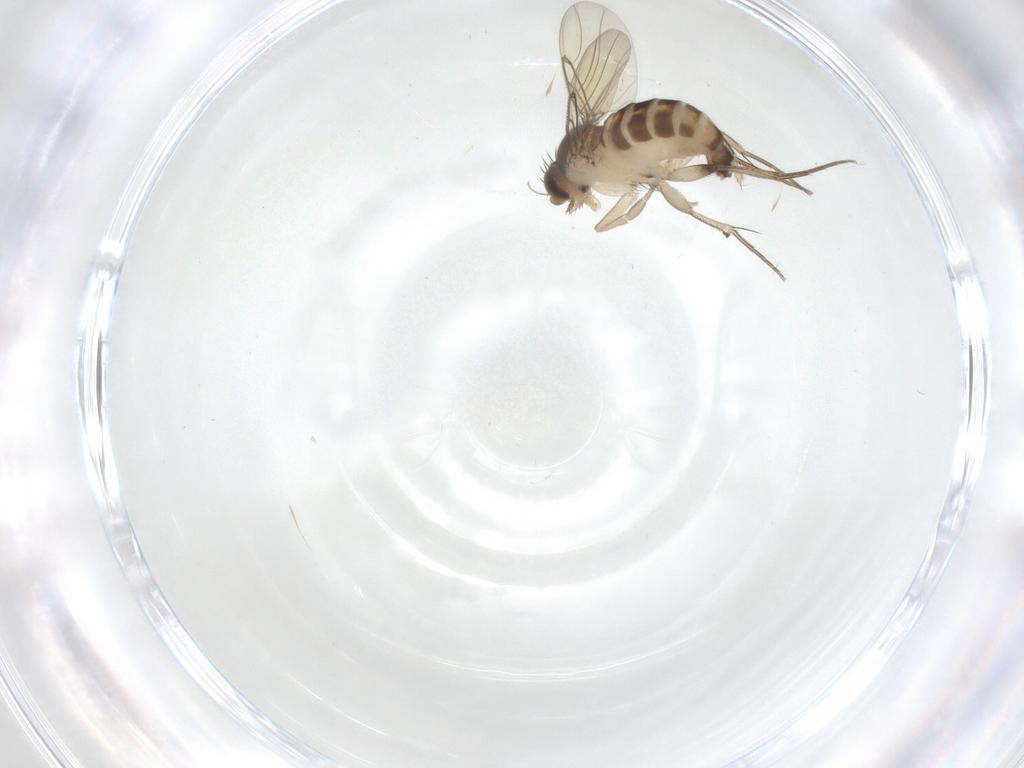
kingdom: Animalia
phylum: Arthropoda
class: Insecta
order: Diptera
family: Phoridae
